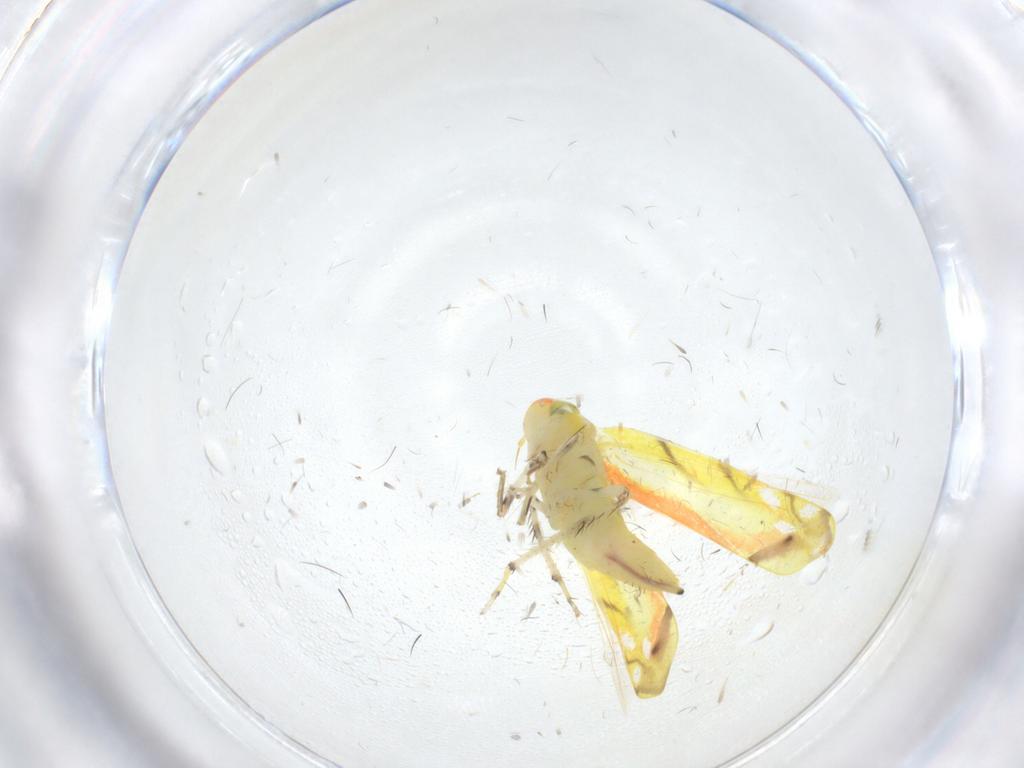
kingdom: Animalia
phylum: Arthropoda
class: Insecta
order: Hemiptera
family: Cicadellidae
